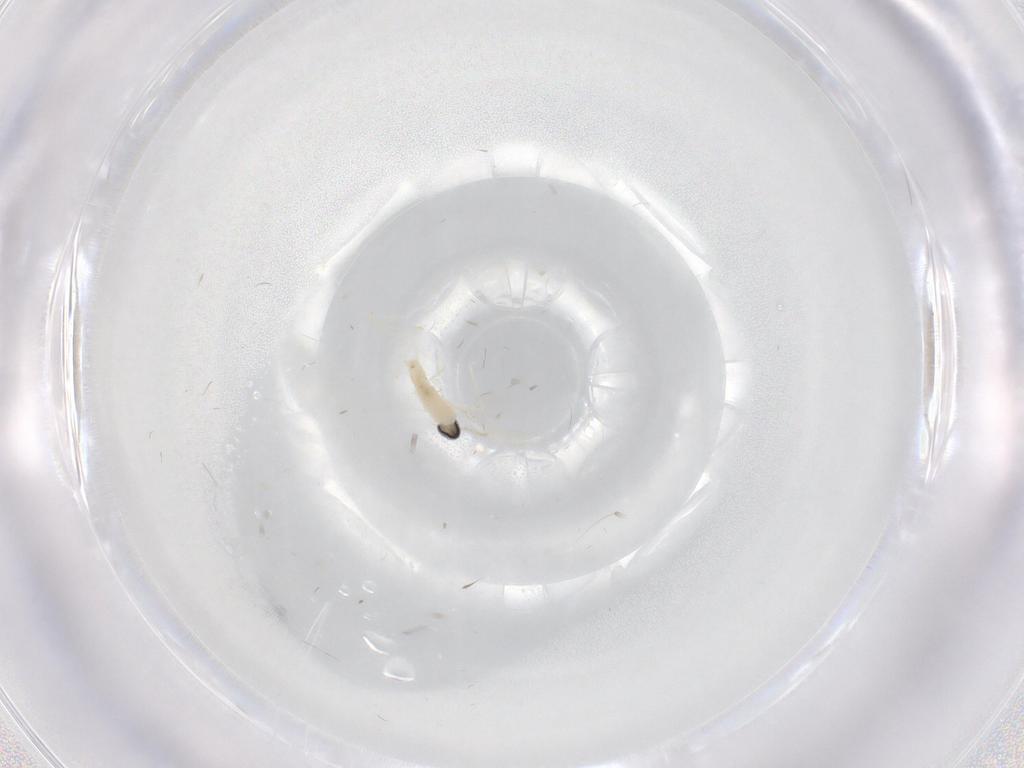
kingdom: Animalia
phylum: Arthropoda
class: Insecta
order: Diptera
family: Cecidomyiidae
